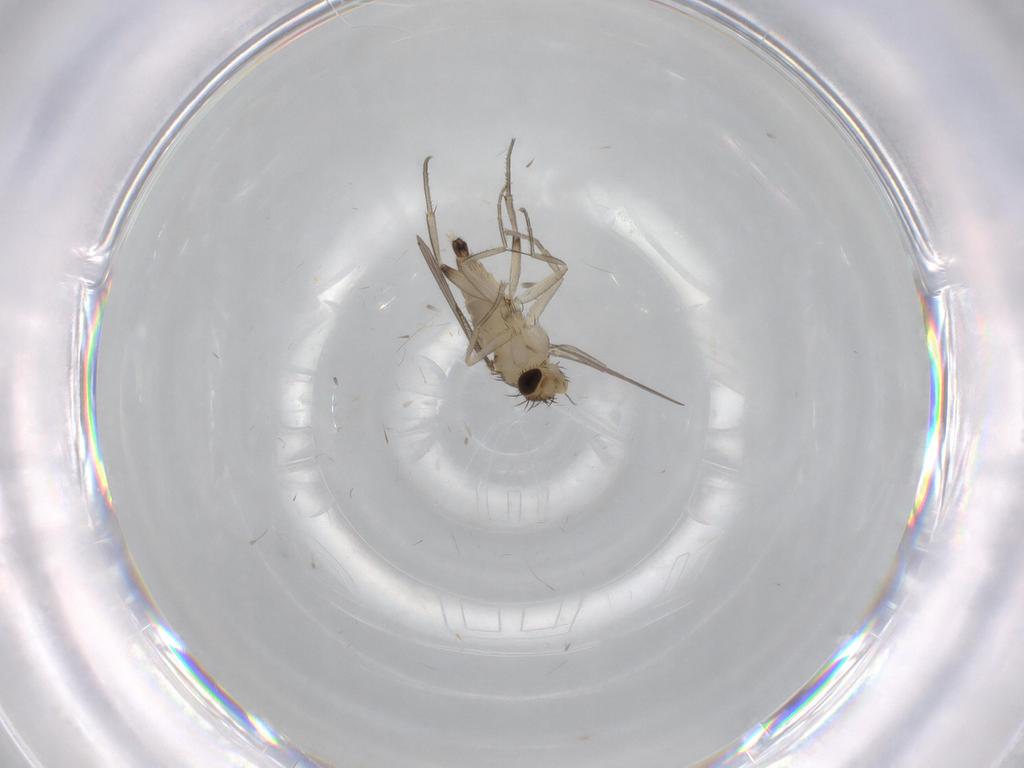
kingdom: Animalia
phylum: Arthropoda
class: Insecta
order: Diptera
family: Phoridae
